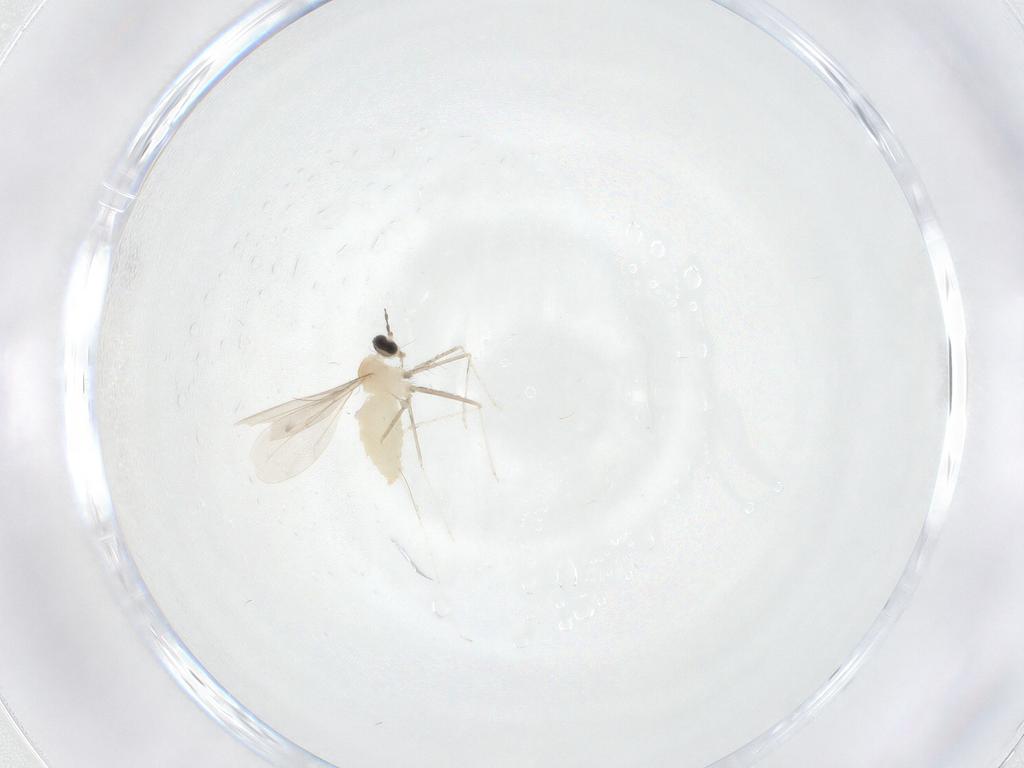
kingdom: Animalia
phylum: Arthropoda
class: Insecta
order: Diptera
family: Cecidomyiidae
